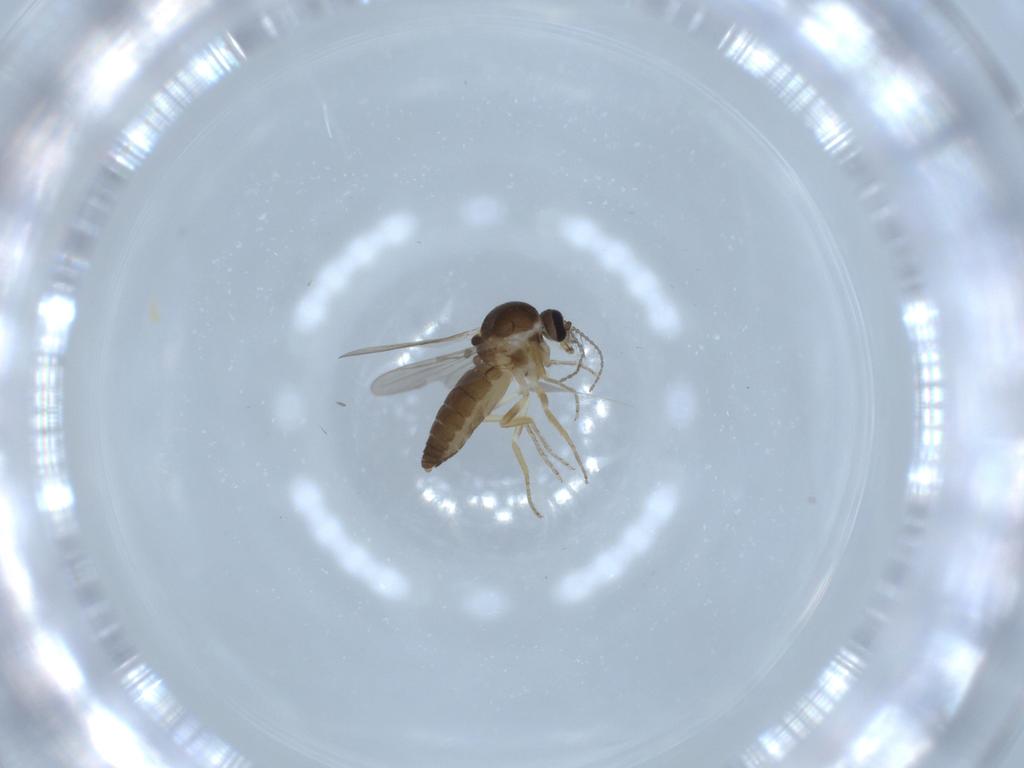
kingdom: Animalia
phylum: Arthropoda
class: Insecta
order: Diptera
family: Ceratopogonidae
